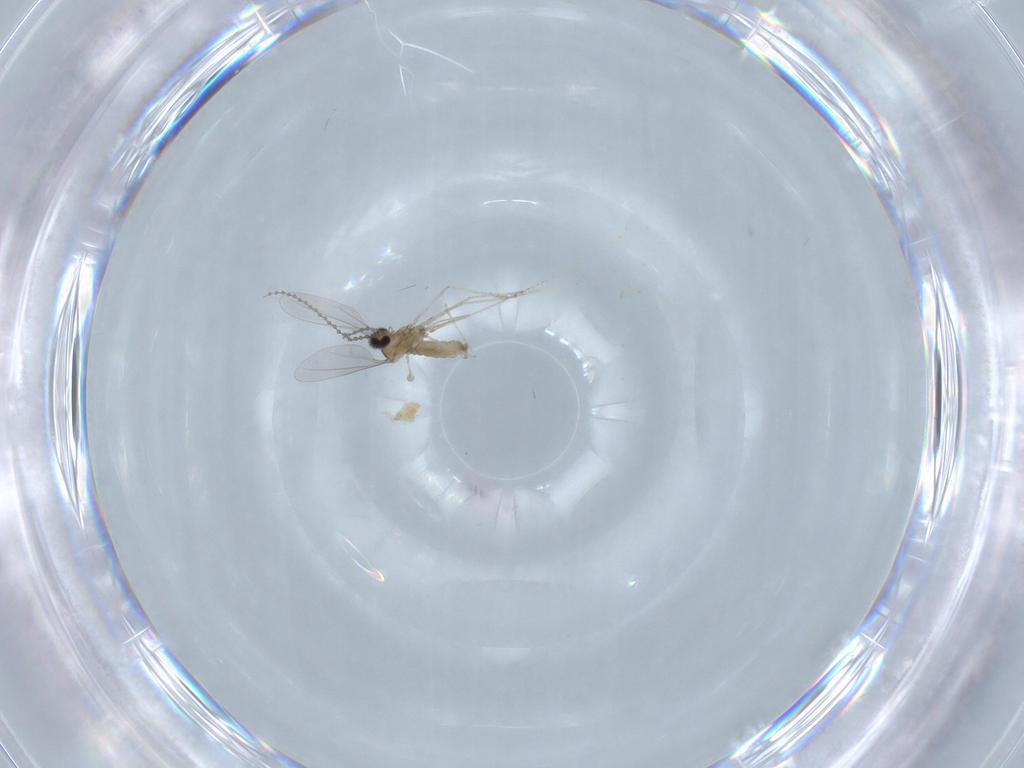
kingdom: Animalia
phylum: Arthropoda
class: Insecta
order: Diptera
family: Cecidomyiidae
